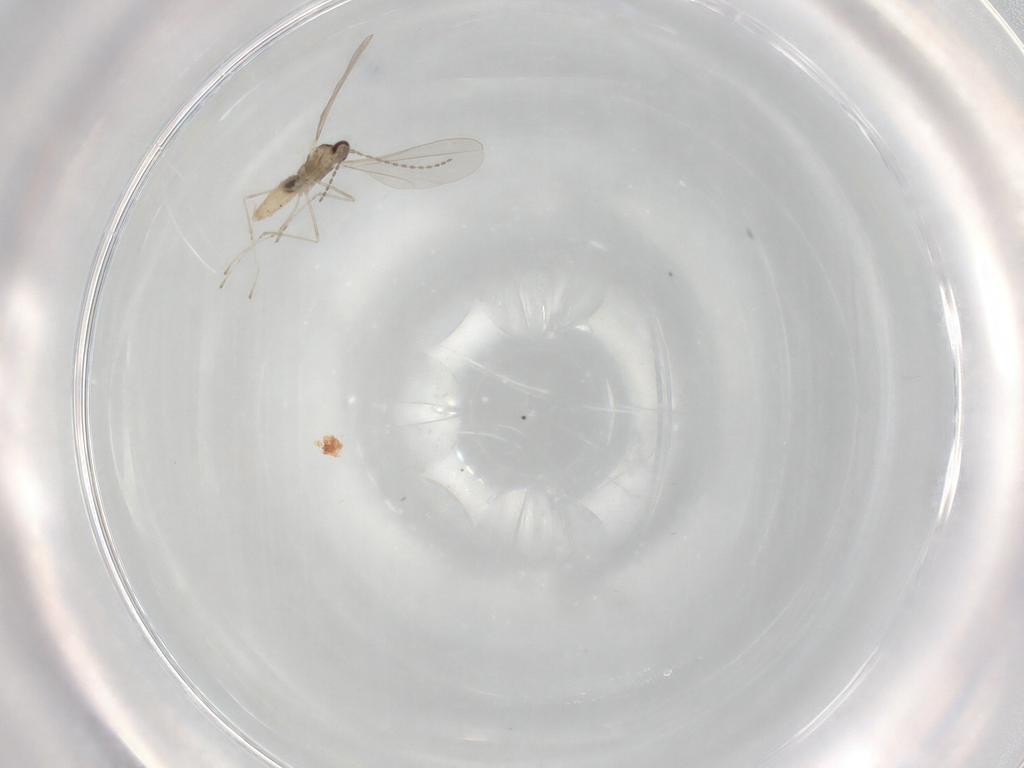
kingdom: Animalia
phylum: Arthropoda
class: Insecta
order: Diptera
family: Cecidomyiidae
